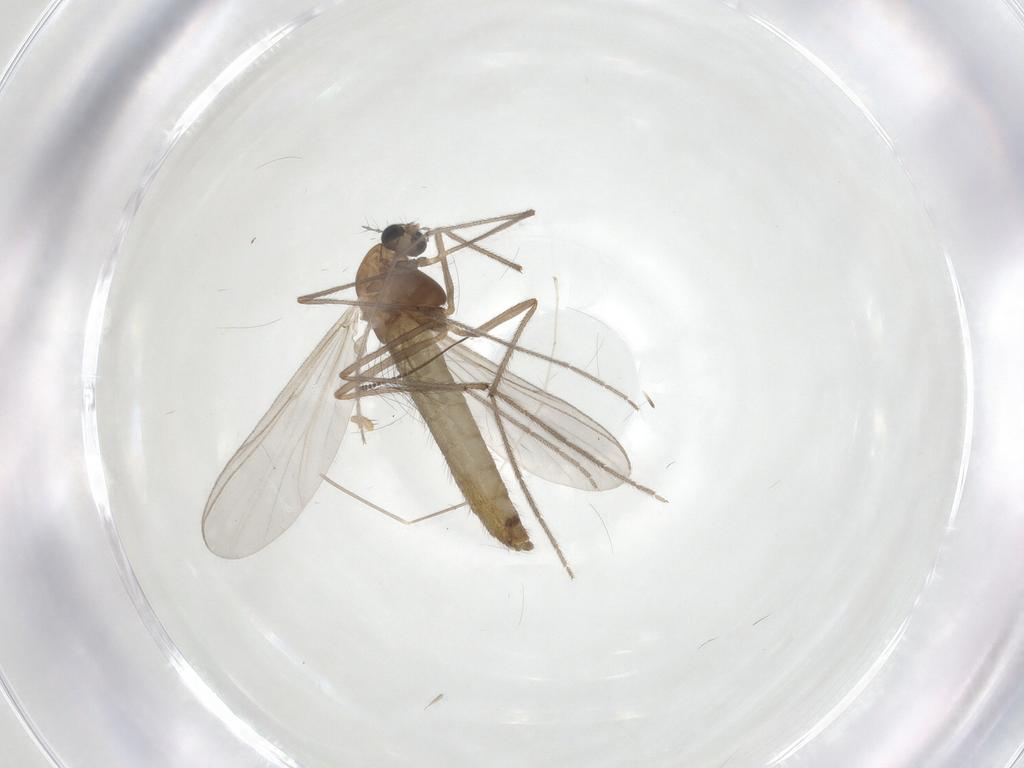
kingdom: Animalia
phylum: Arthropoda
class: Insecta
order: Diptera
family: Chironomidae
